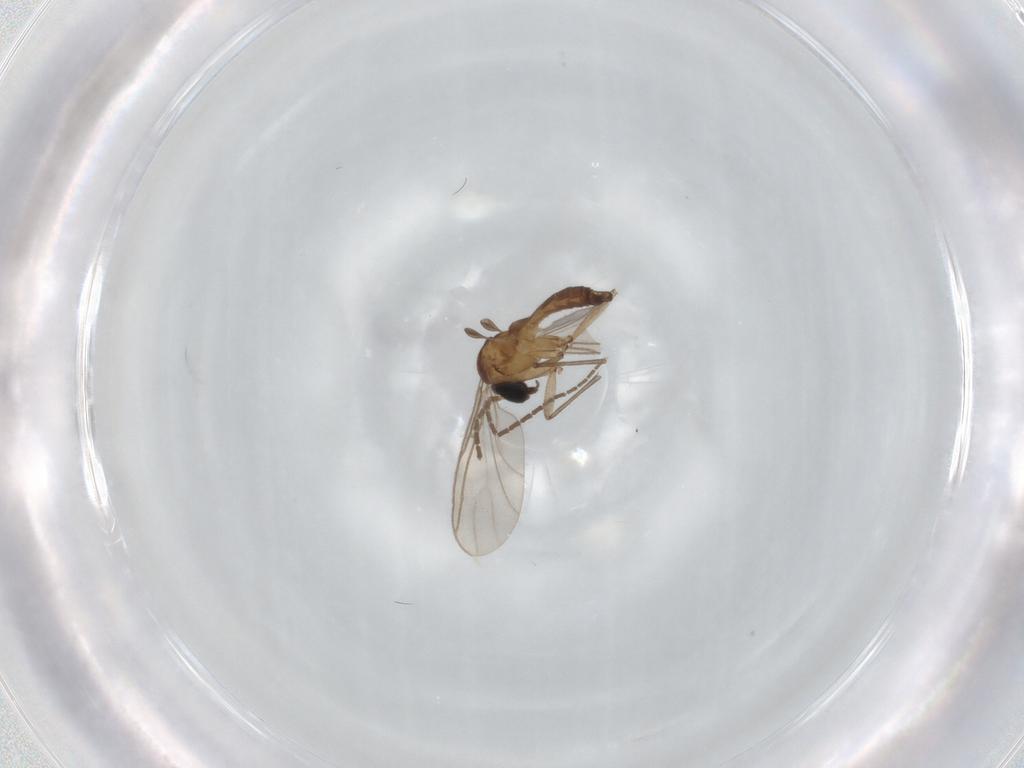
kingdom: Animalia
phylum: Arthropoda
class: Insecta
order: Diptera
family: Sciaridae
